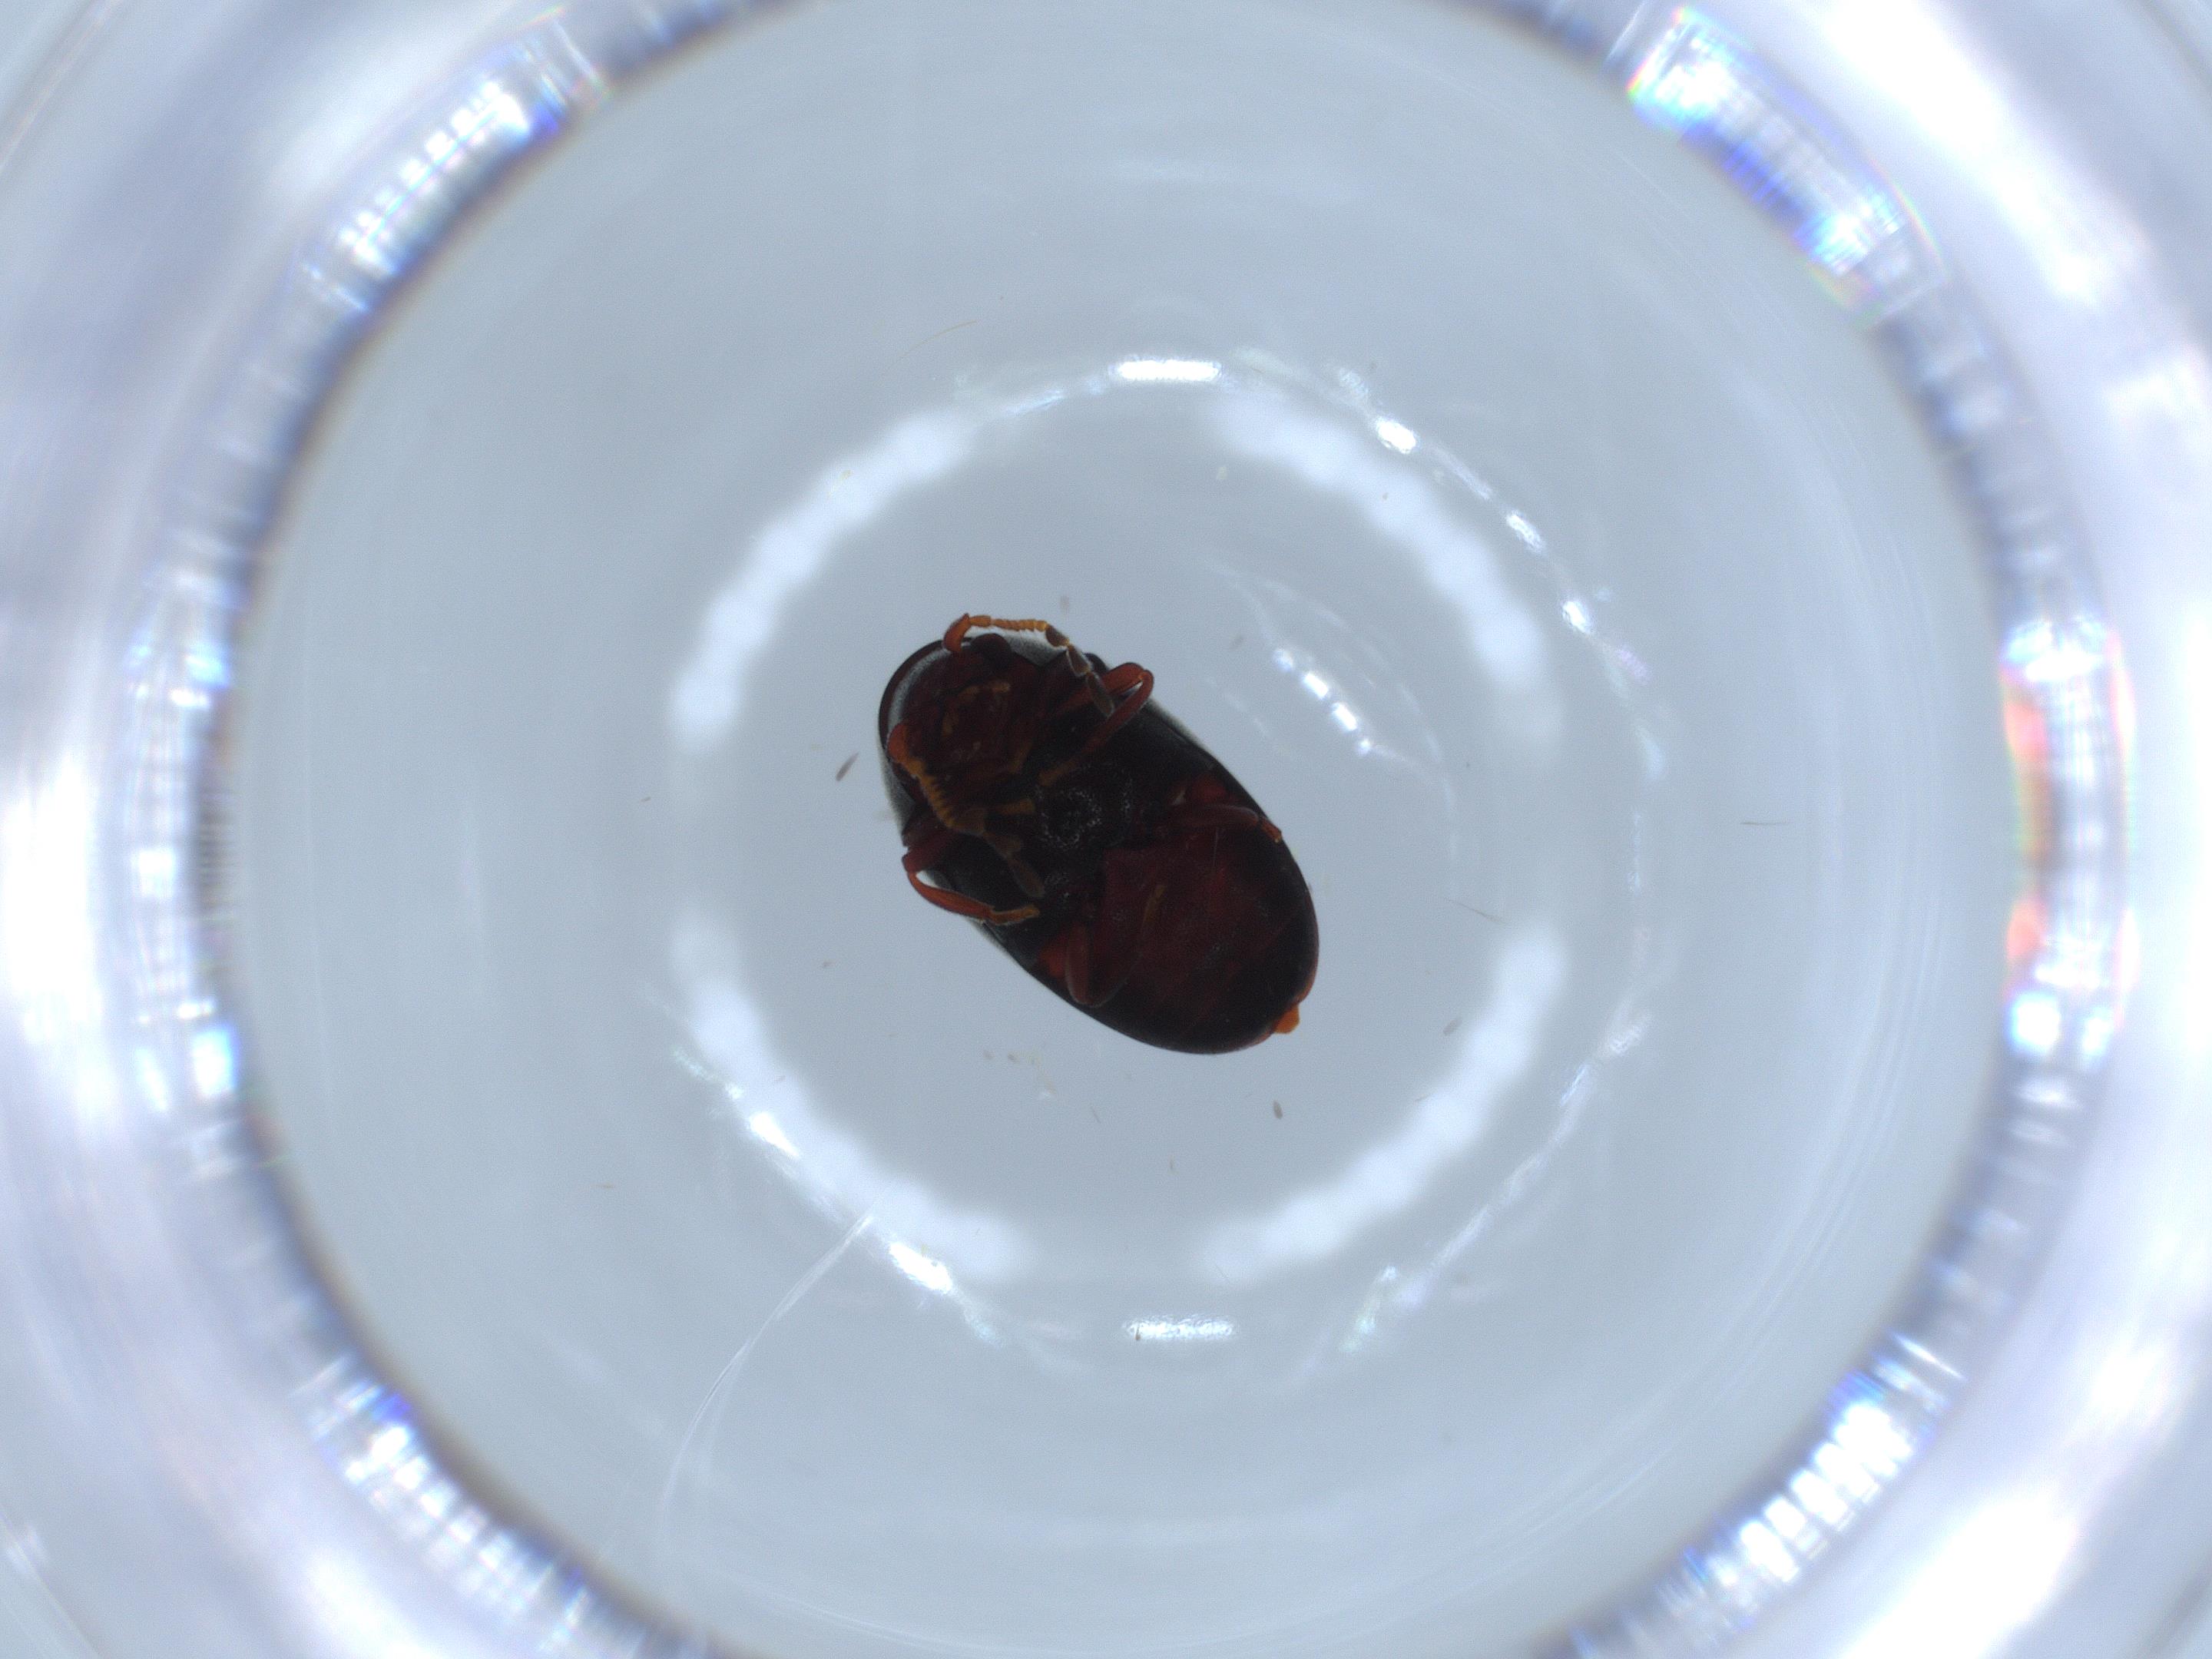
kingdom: Animalia
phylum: Arthropoda
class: Insecta
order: Coleoptera
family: Ptinidae
